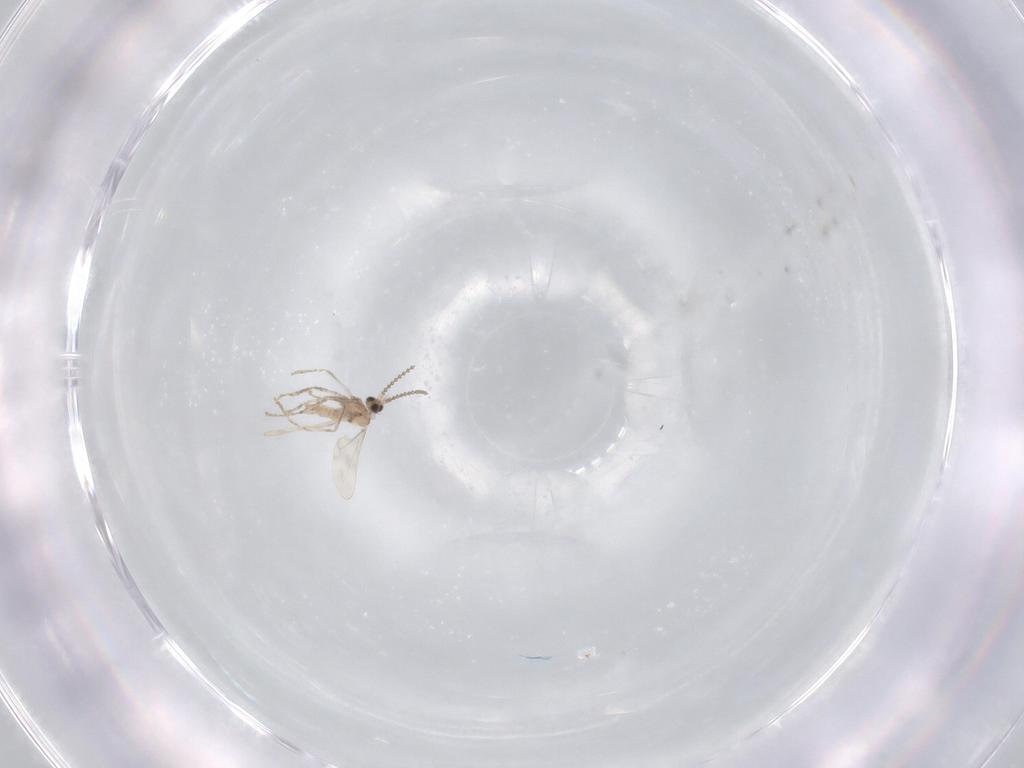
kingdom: Animalia
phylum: Arthropoda
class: Insecta
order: Diptera
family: Cecidomyiidae
